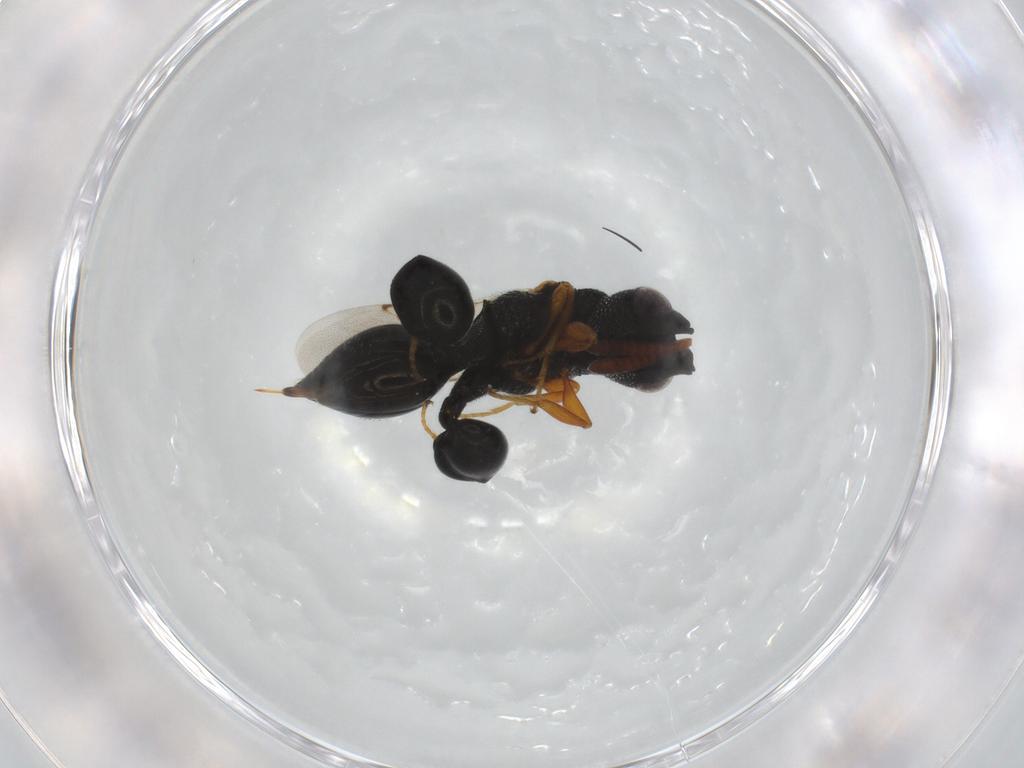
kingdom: Animalia
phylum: Arthropoda
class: Insecta
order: Hymenoptera
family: Chalcididae
